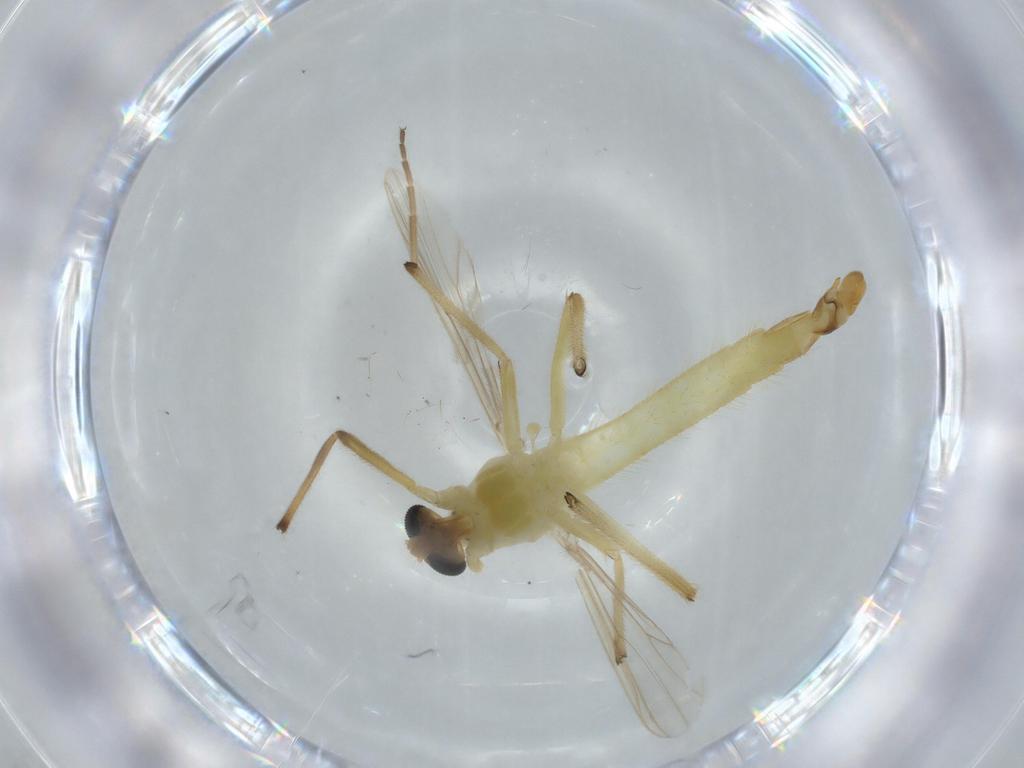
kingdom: Animalia
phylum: Arthropoda
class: Insecta
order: Diptera
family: Chironomidae
